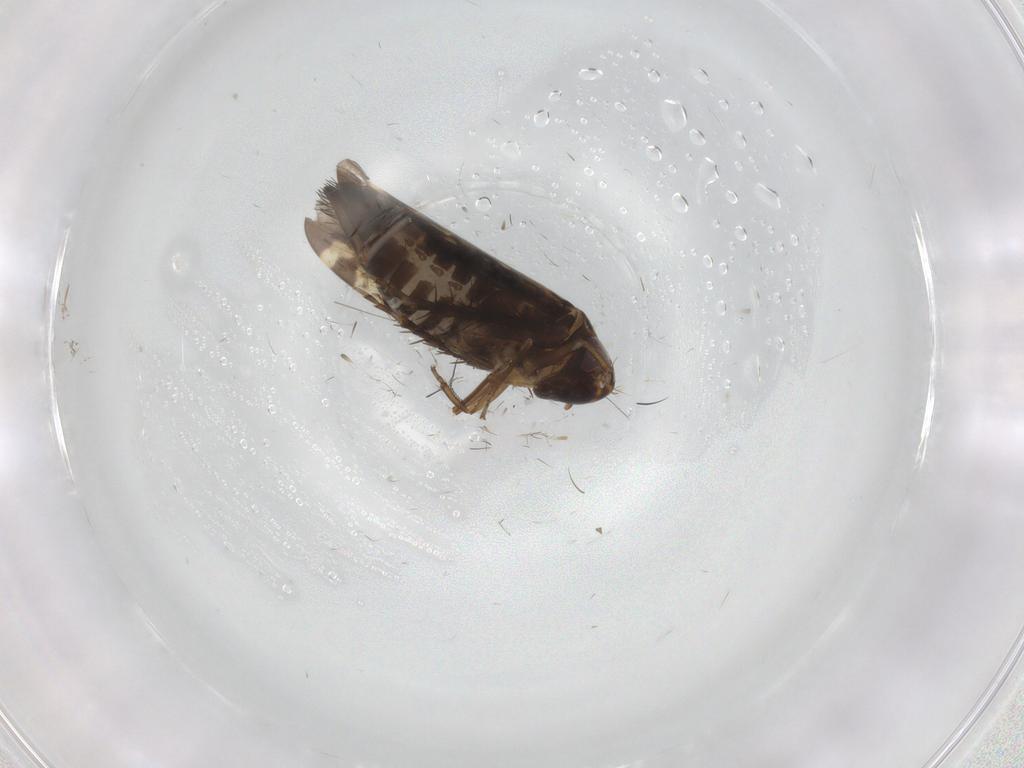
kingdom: Animalia
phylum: Arthropoda
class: Insecta
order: Hemiptera
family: Cicadellidae
